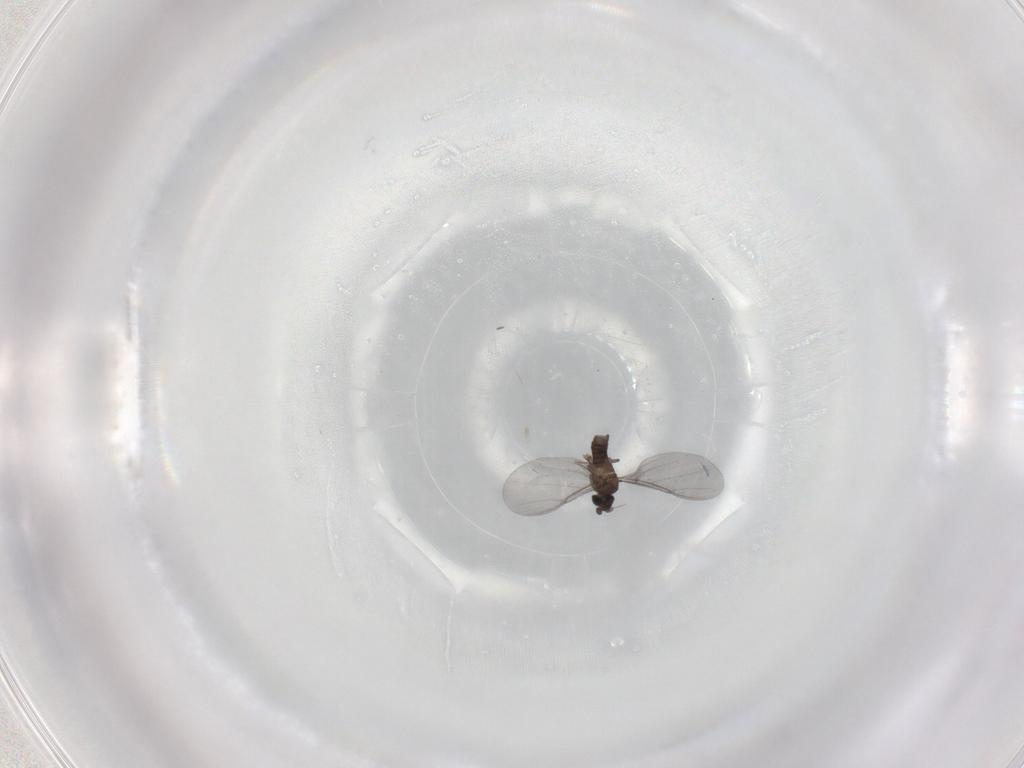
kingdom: Animalia
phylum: Arthropoda
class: Insecta
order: Diptera
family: Phoridae
